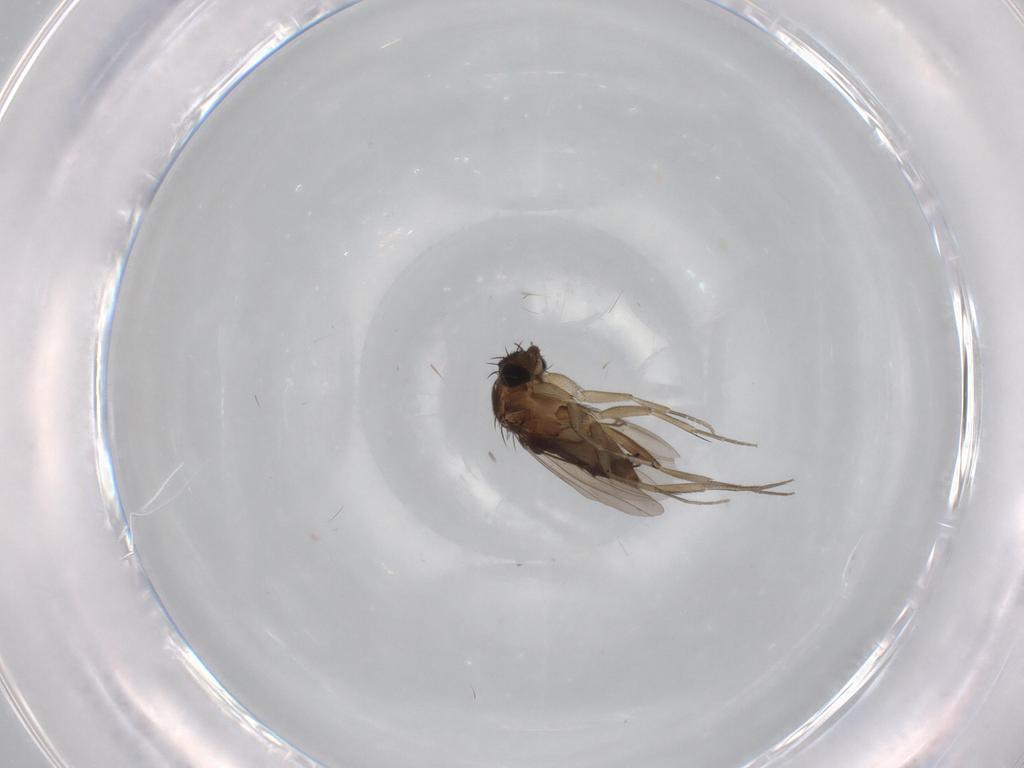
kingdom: Animalia
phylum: Arthropoda
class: Insecta
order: Diptera
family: Phoridae
